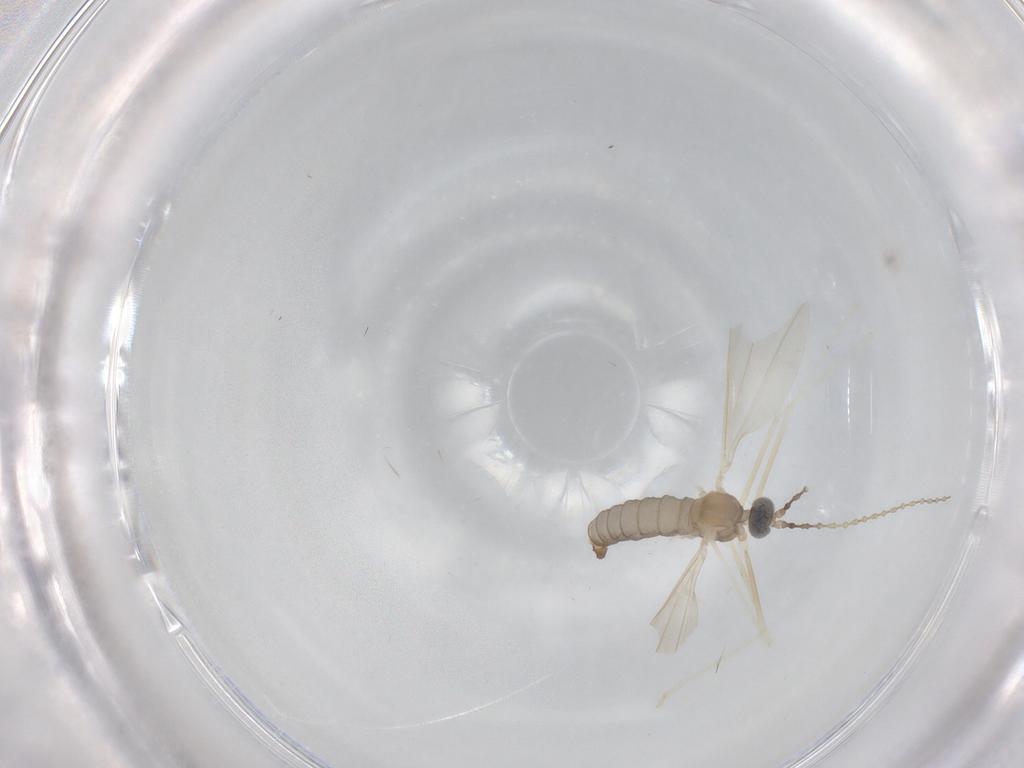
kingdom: Animalia
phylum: Arthropoda
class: Insecta
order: Diptera
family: Cecidomyiidae
